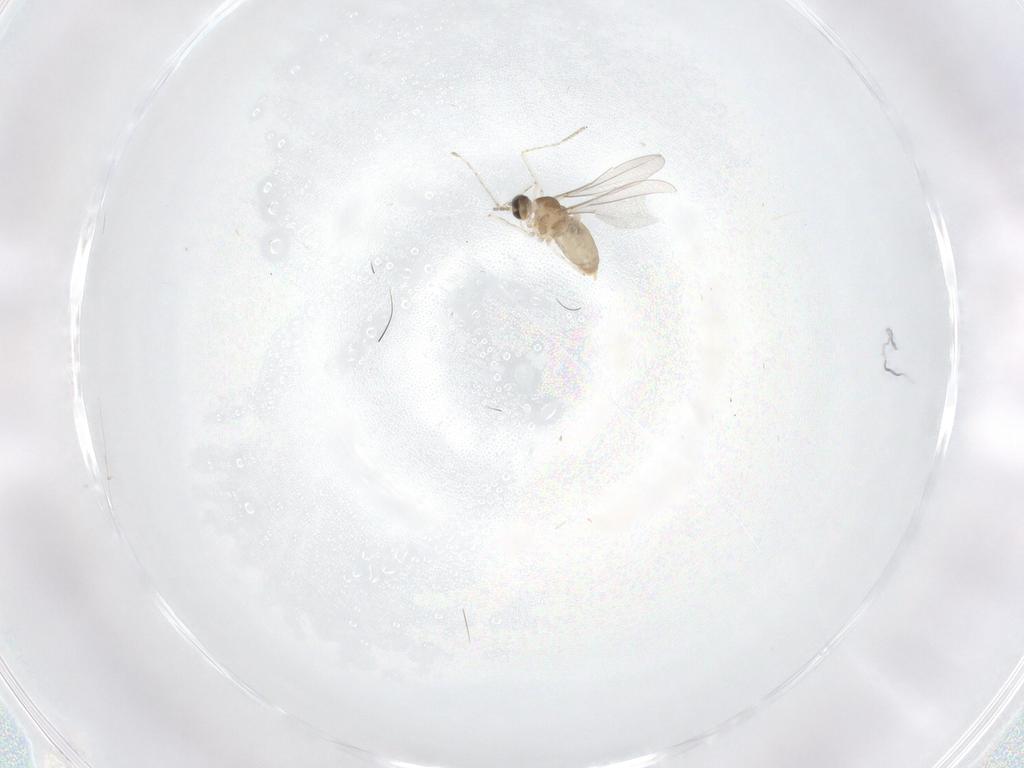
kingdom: Animalia
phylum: Arthropoda
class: Insecta
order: Diptera
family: Cecidomyiidae
